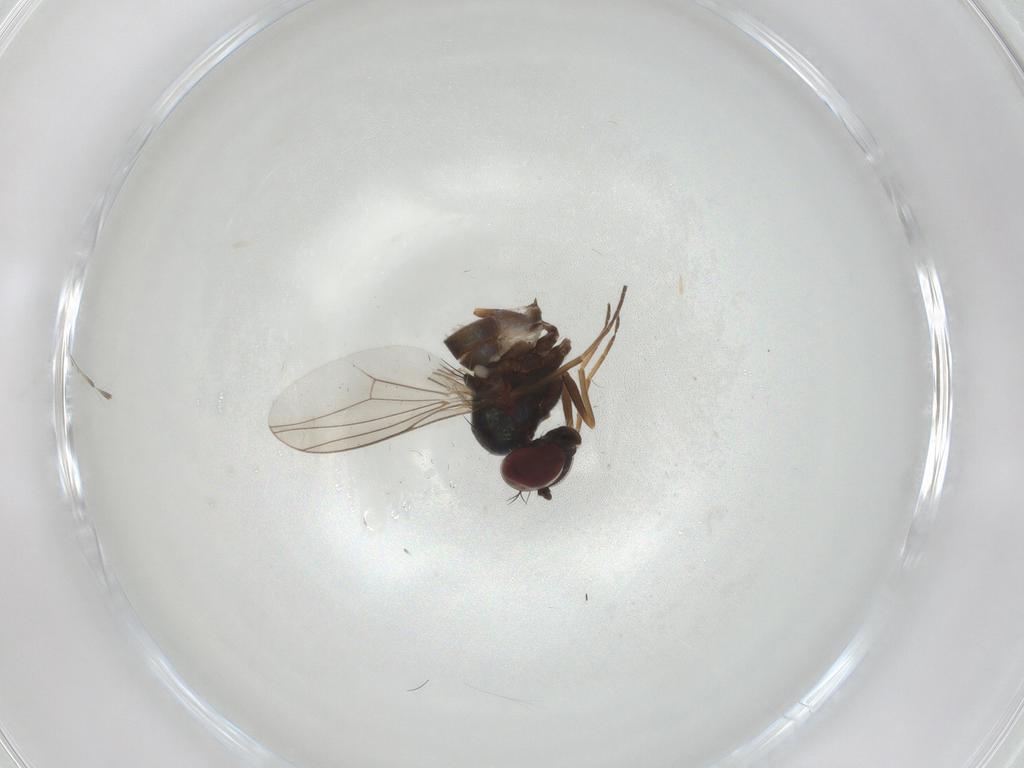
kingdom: Animalia
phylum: Arthropoda
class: Insecta
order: Diptera
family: Dolichopodidae
